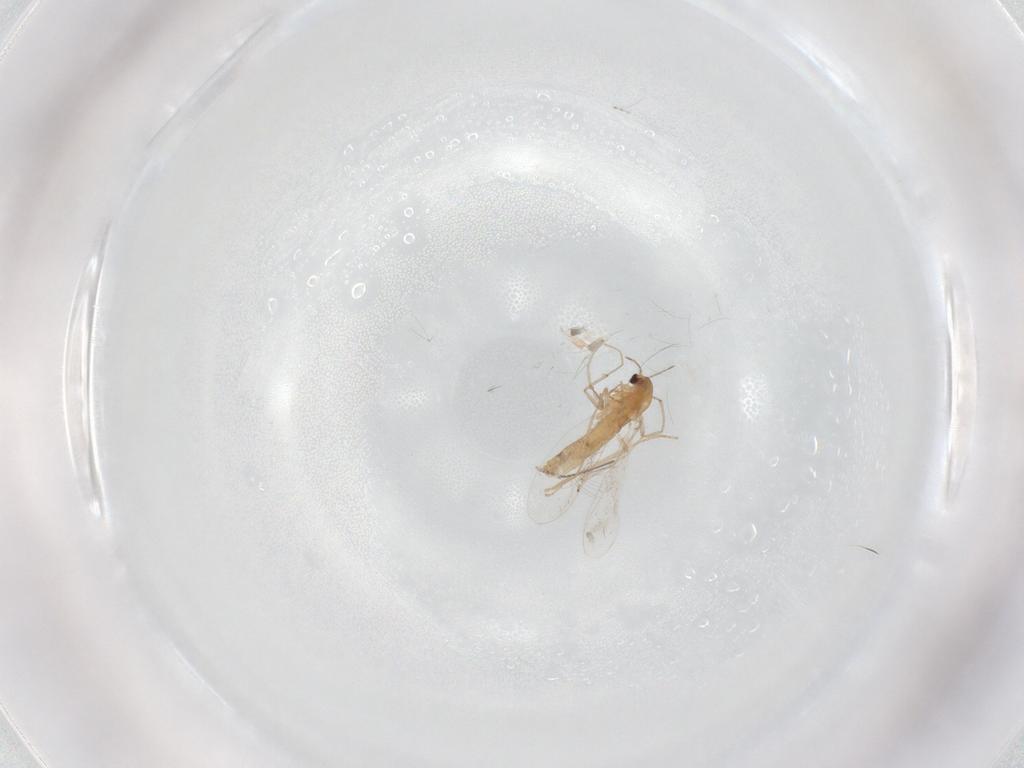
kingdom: Animalia
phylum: Arthropoda
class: Insecta
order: Diptera
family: Chironomidae
